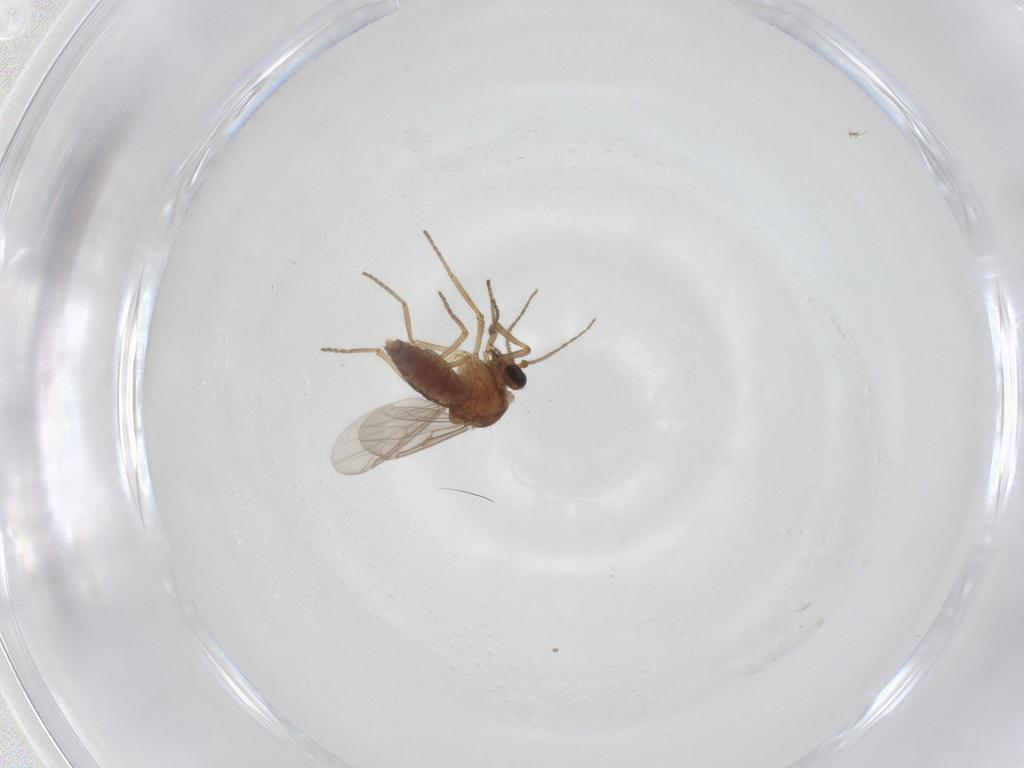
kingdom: Animalia
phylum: Arthropoda
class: Insecta
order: Diptera
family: Ceratopogonidae
